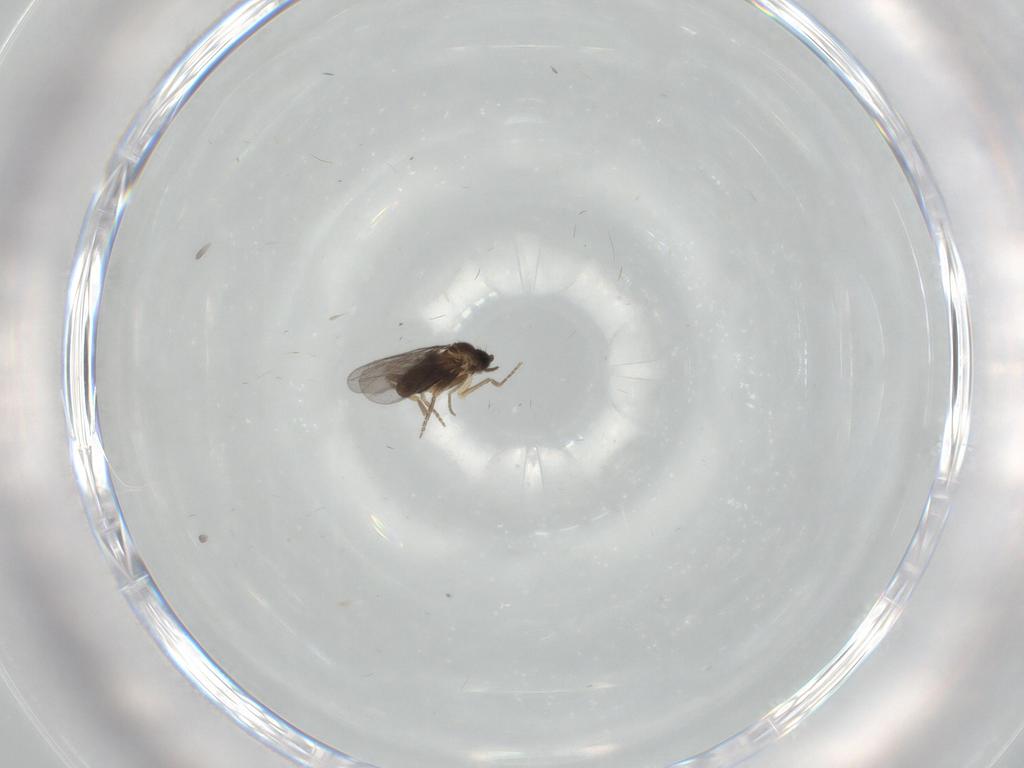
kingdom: Animalia
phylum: Arthropoda
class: Insecta
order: Diptera
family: Phoridae
